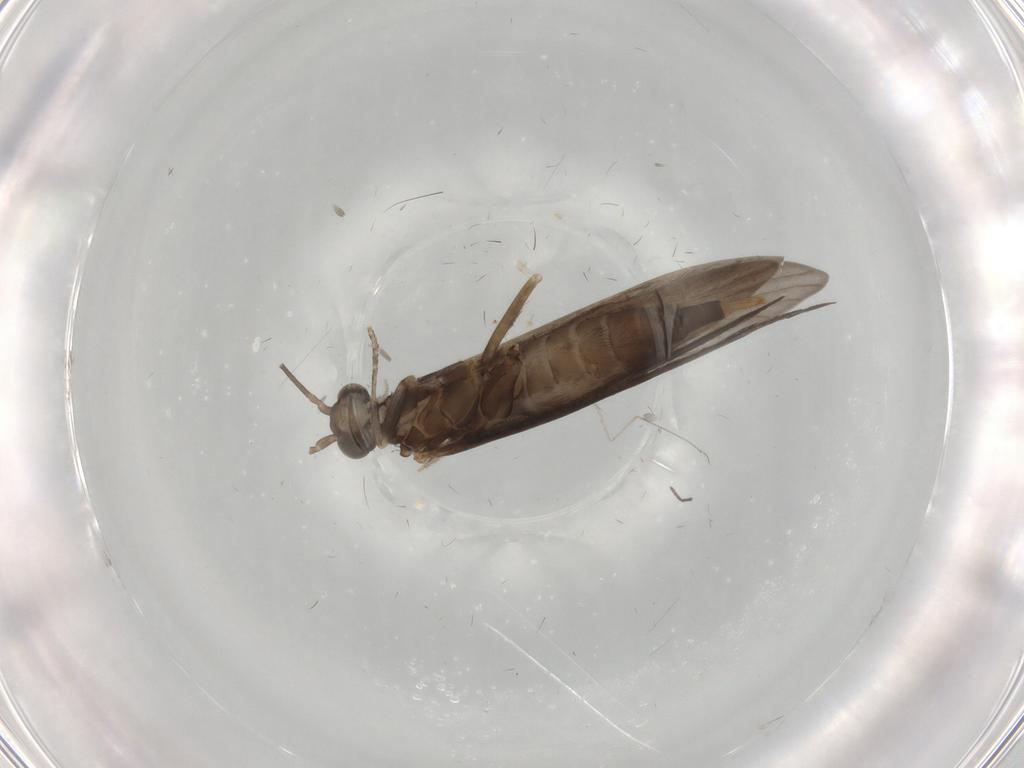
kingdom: Animalia
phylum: Arthropoda
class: Insecta
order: Trichoptera
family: Xiphocentronidae
